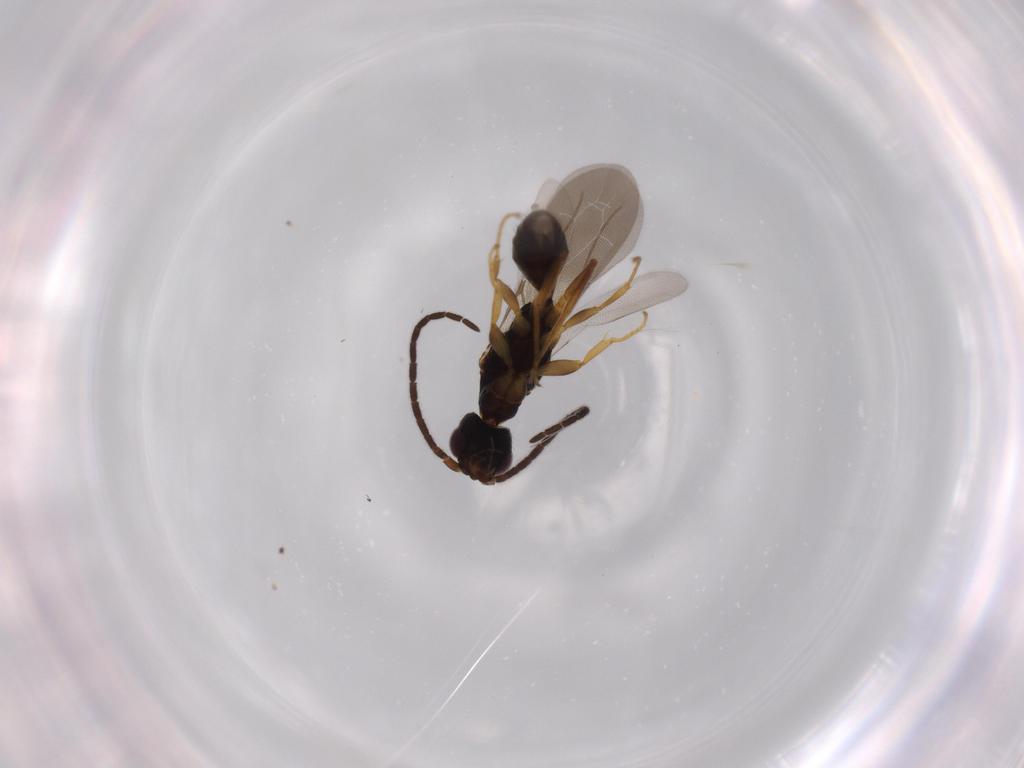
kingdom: Animalia
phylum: Arthropoda
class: Insecta
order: Hymenoptera
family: Bethylidae
